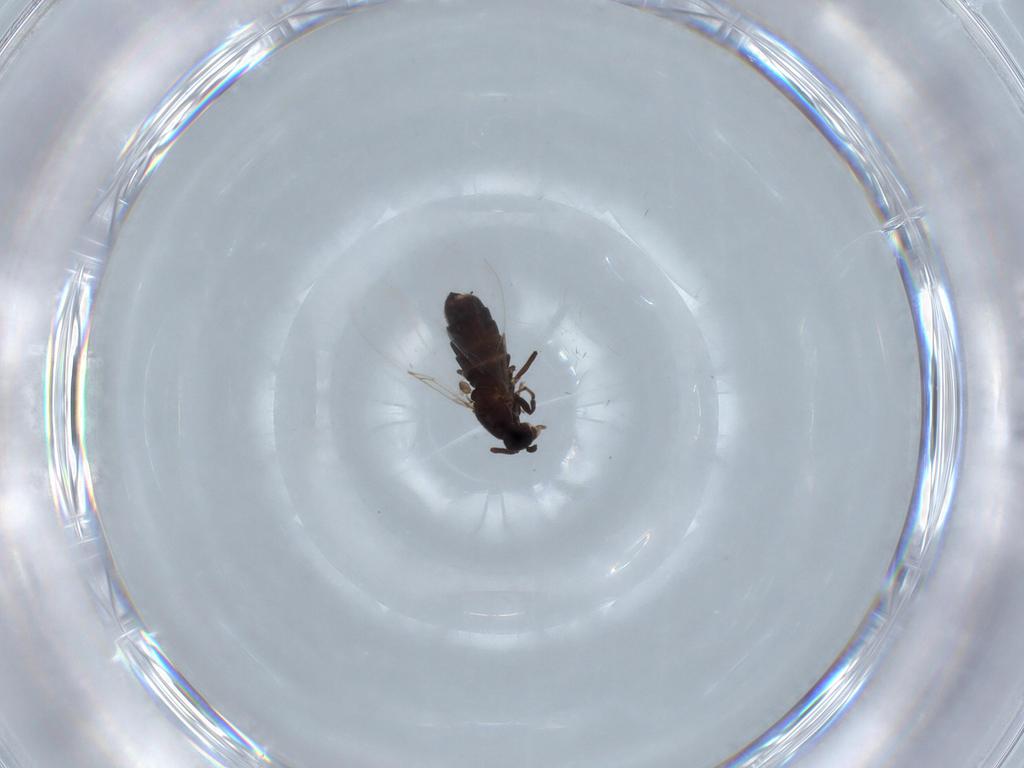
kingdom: Animalia
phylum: Arthropoda
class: Insecta
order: Diptera
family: Scatopsidae
